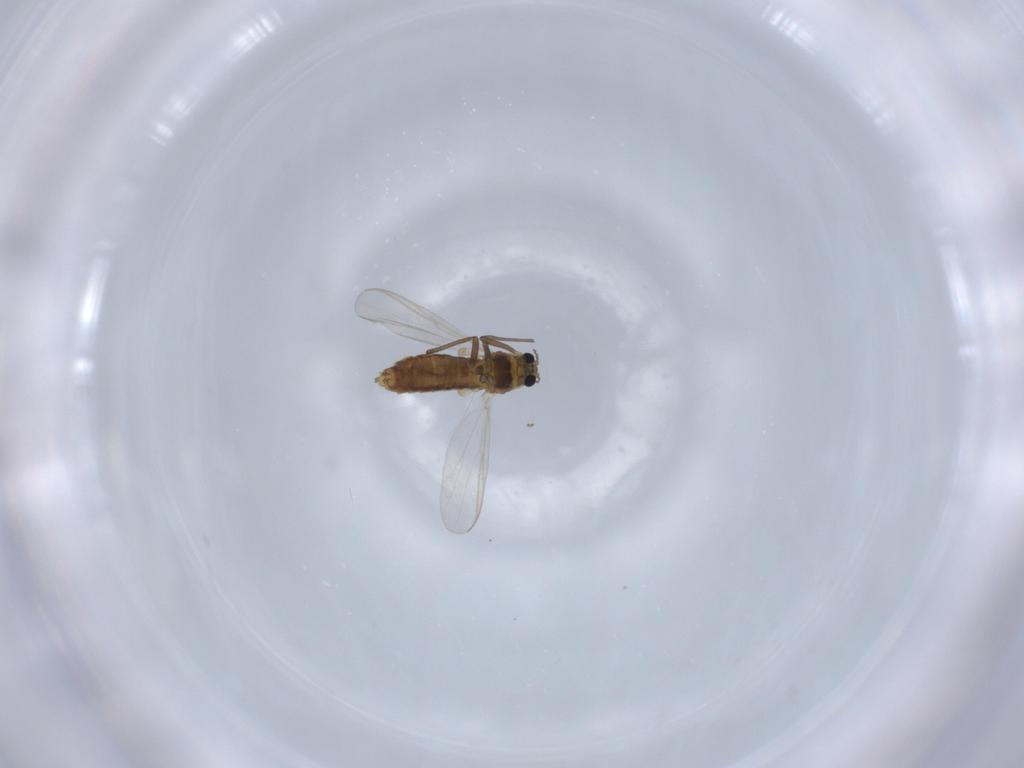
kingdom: Animalia
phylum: Arthropoda
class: Insecta
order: Diptera
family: Chironomidae
